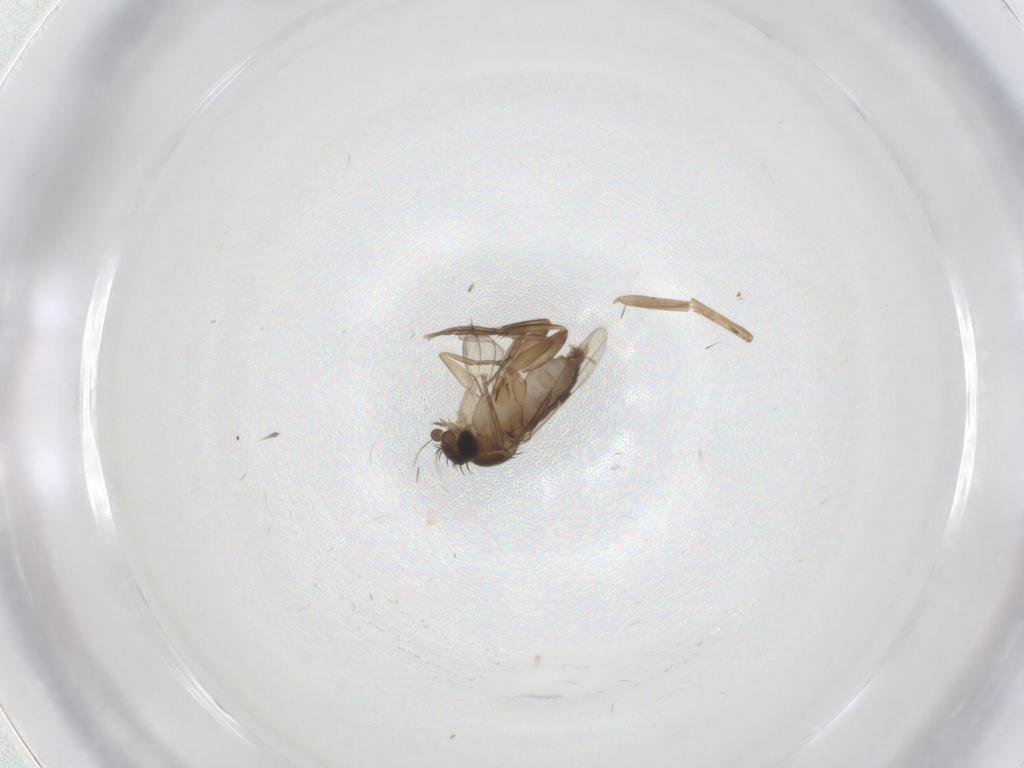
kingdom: Animalia
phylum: Arthropoda
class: Insecta
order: Diptera
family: Phoridae
